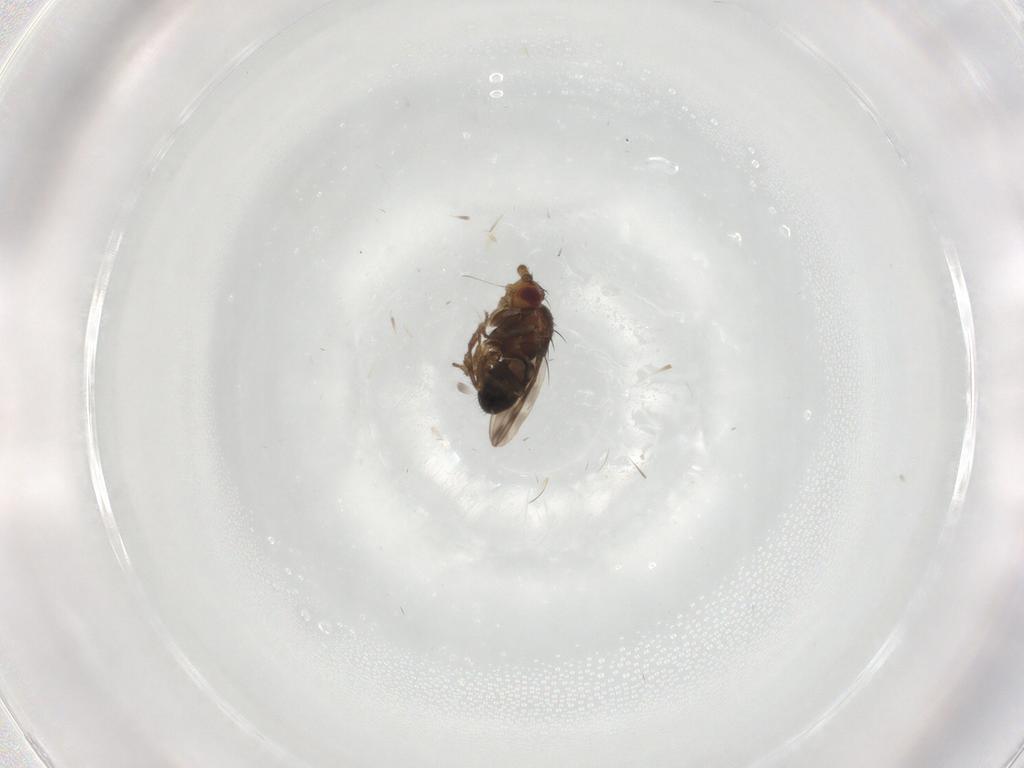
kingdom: Animalia
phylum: Arthropoda
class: Insecta
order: Diptera
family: Sphaeroceridae
